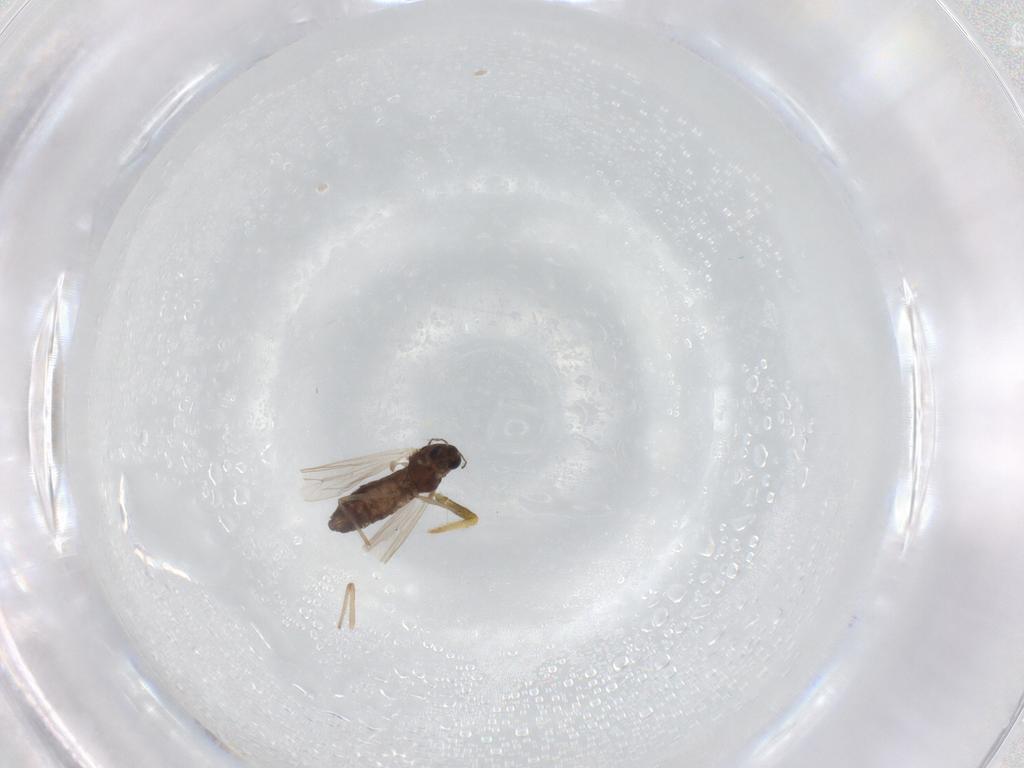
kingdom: Animalia
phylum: Arthropoda
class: Insecta
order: Diptera
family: Chironomidae
